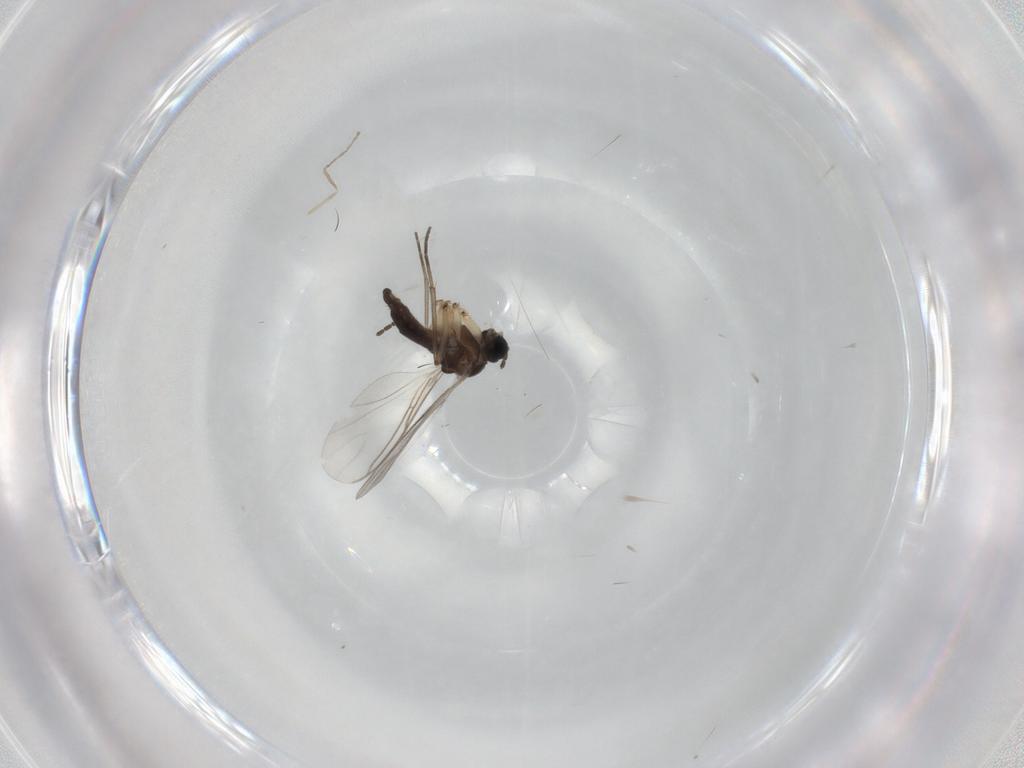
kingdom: Animalia
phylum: Arthropoda
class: Insecta
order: Diptera
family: Sciaridae
